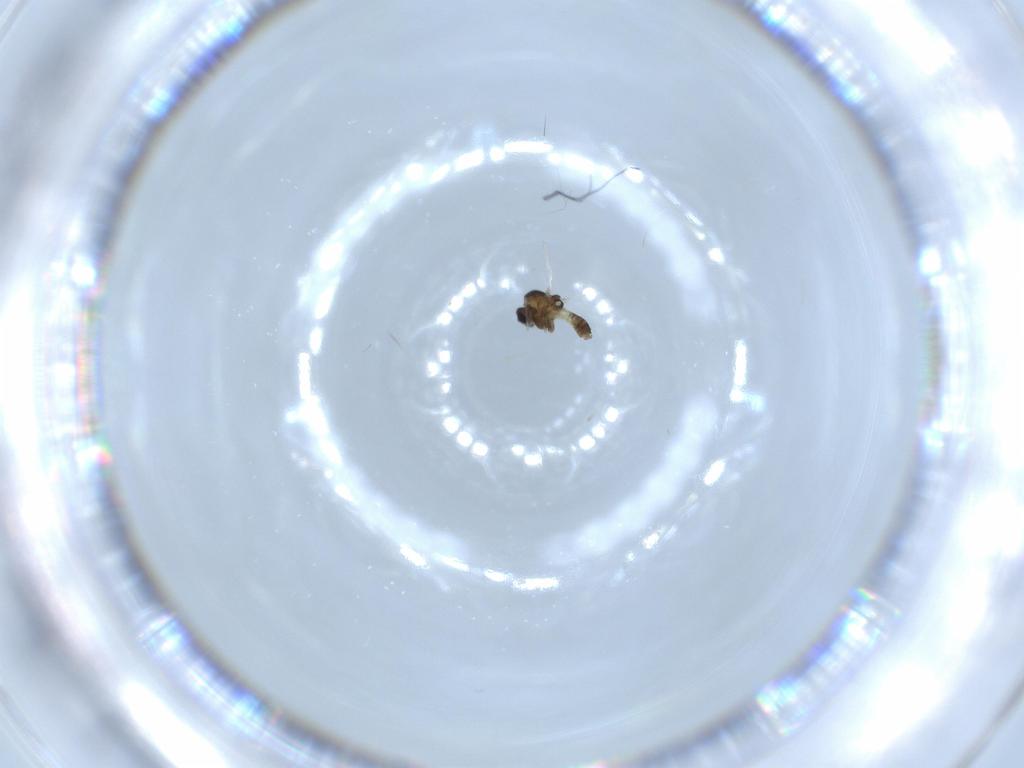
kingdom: Animalia
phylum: Arthropoda
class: Insecta
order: Diptera
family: Chironomidae
